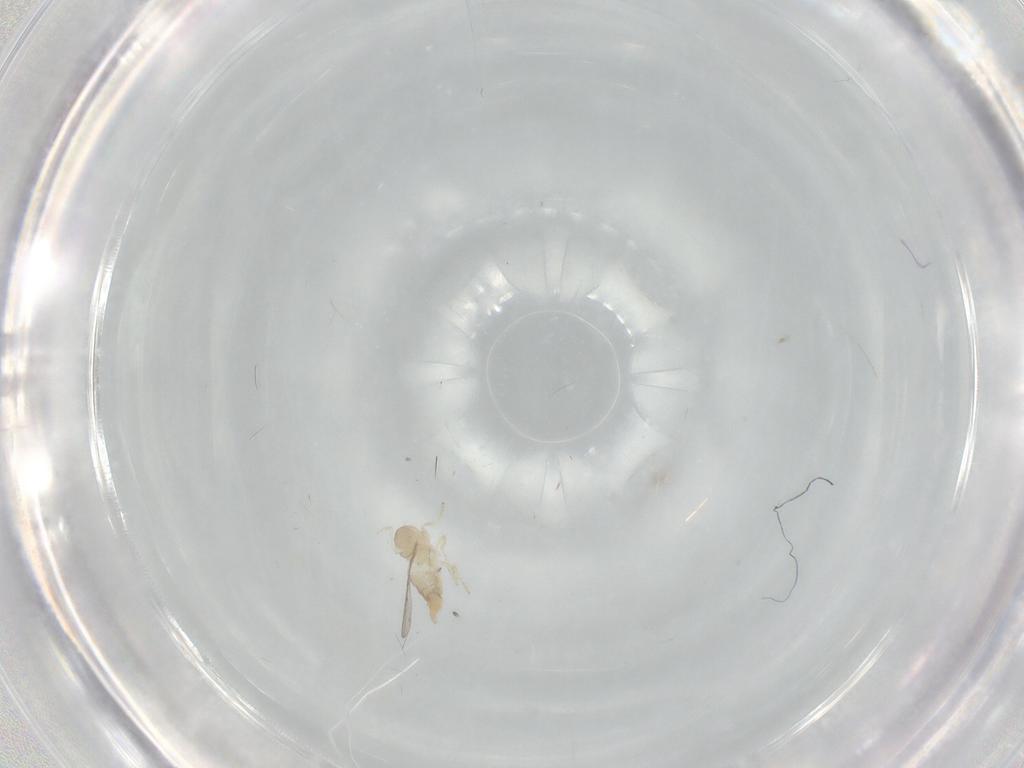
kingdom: Animalia
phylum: Arthropoda
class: Insecta
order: Diptera
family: Cecidomyiidae
